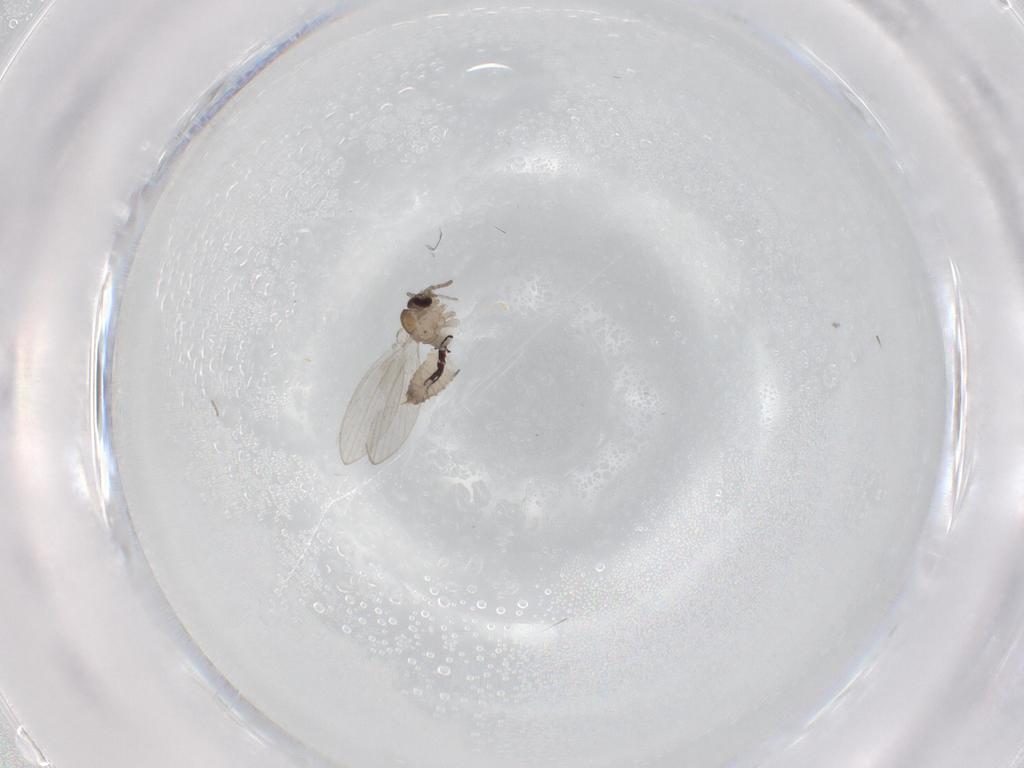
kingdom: Animalia
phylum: Arthropoda
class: Insecta
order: Diptera
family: Psychodidae
